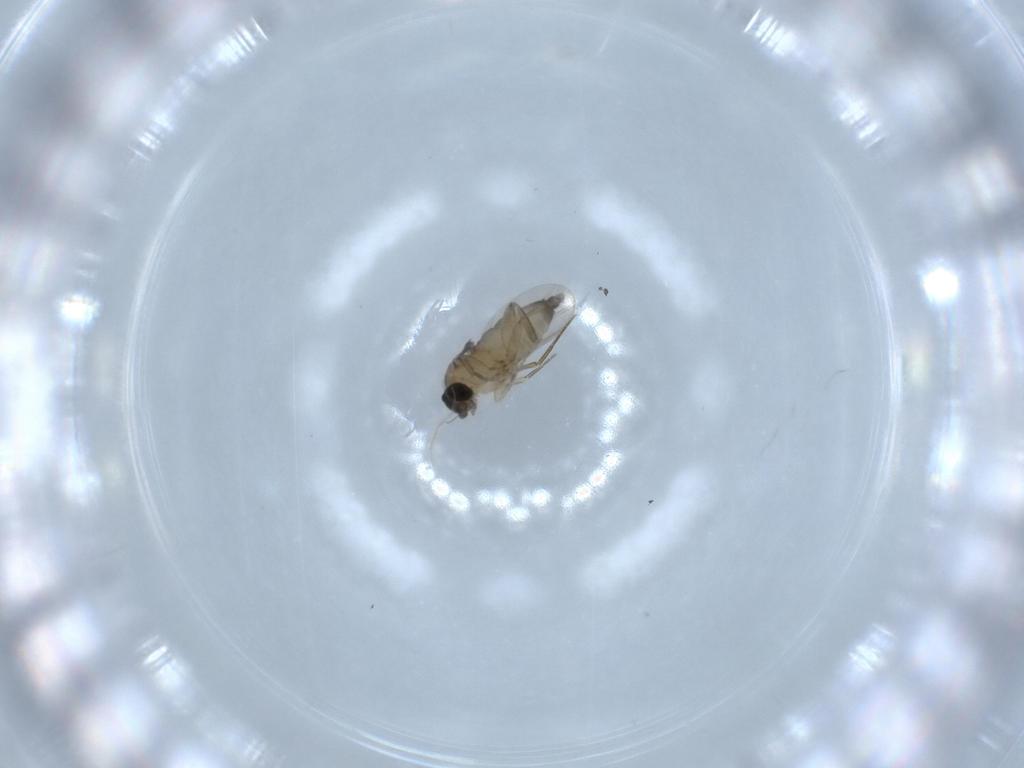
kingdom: Animalia
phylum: Arthropoda
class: Insecta
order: Diptera
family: Phoridae
